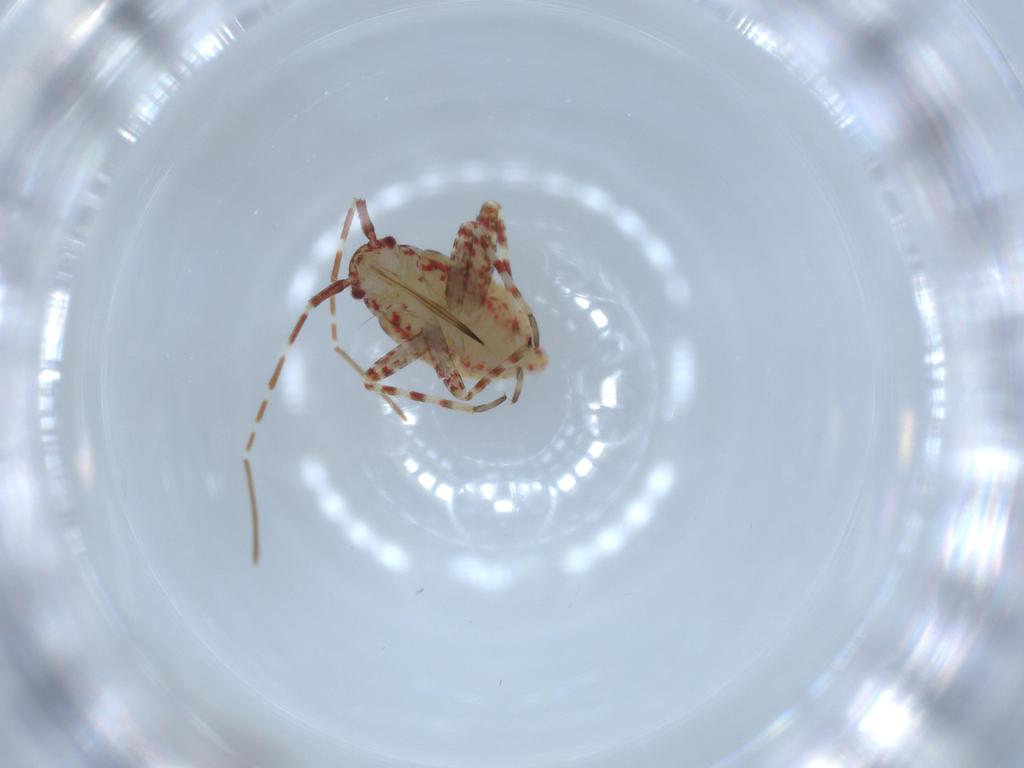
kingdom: Animalia
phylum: Arthropoda
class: Insecta
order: Hemiptera
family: Miridae
